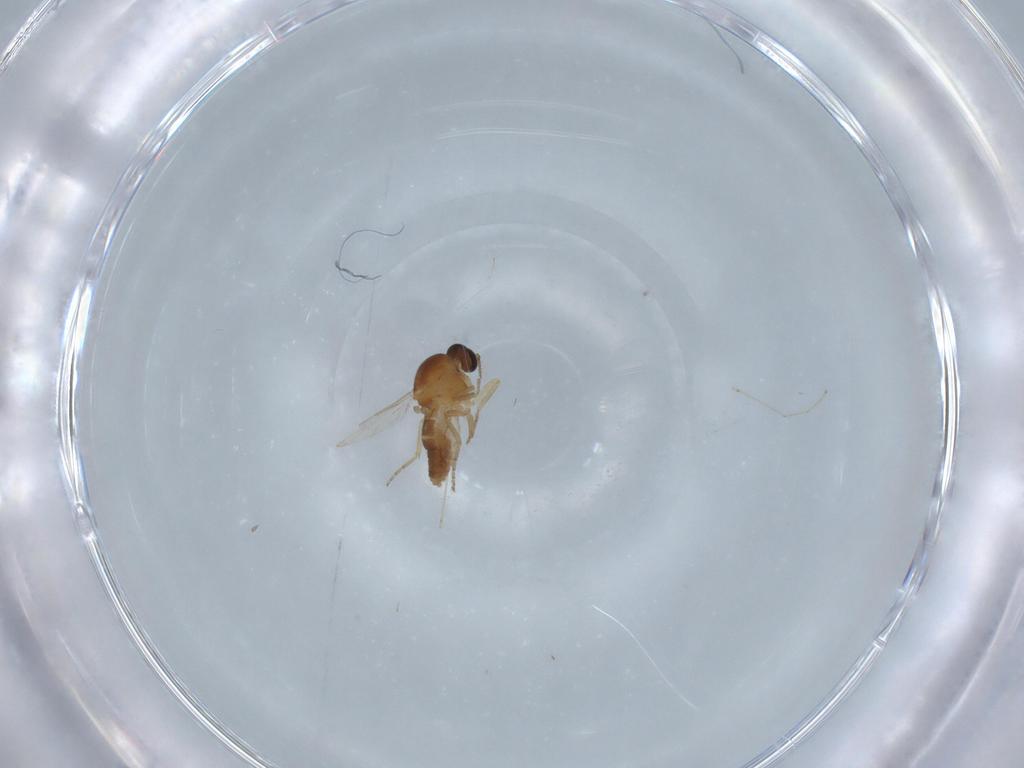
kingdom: Animalia
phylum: Arthropoda
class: Insecta
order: Diptera
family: Ceratopogonidae
